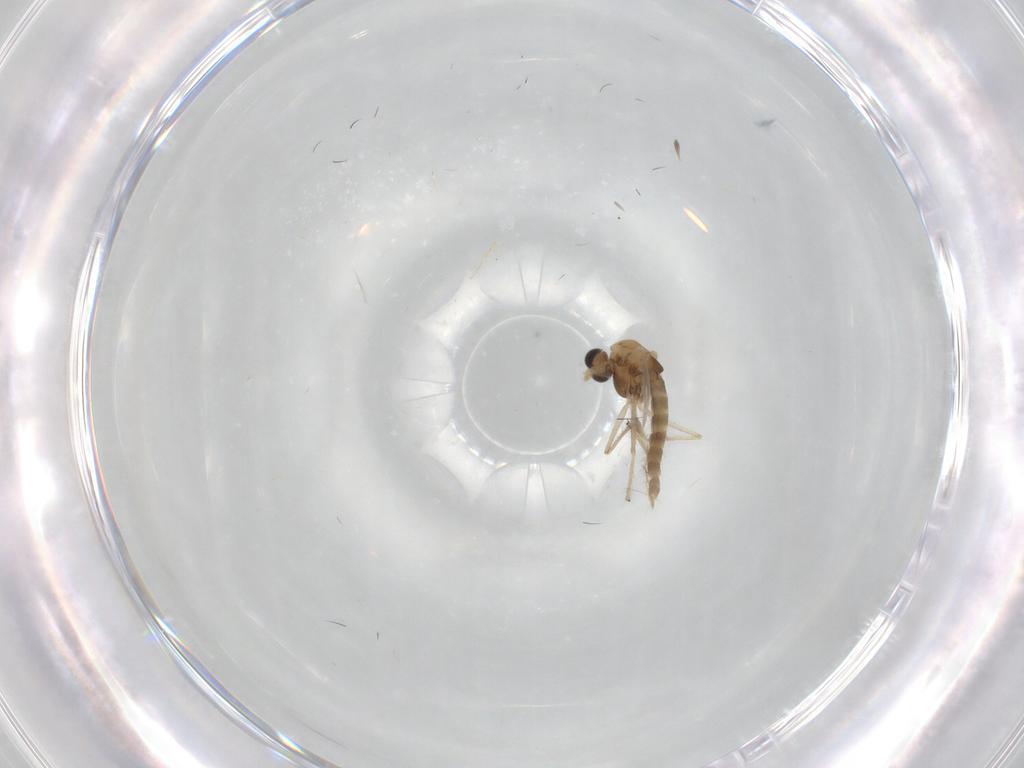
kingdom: Animalia
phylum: Arthropoda
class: Insecta
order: Diptera
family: Chironomidae
